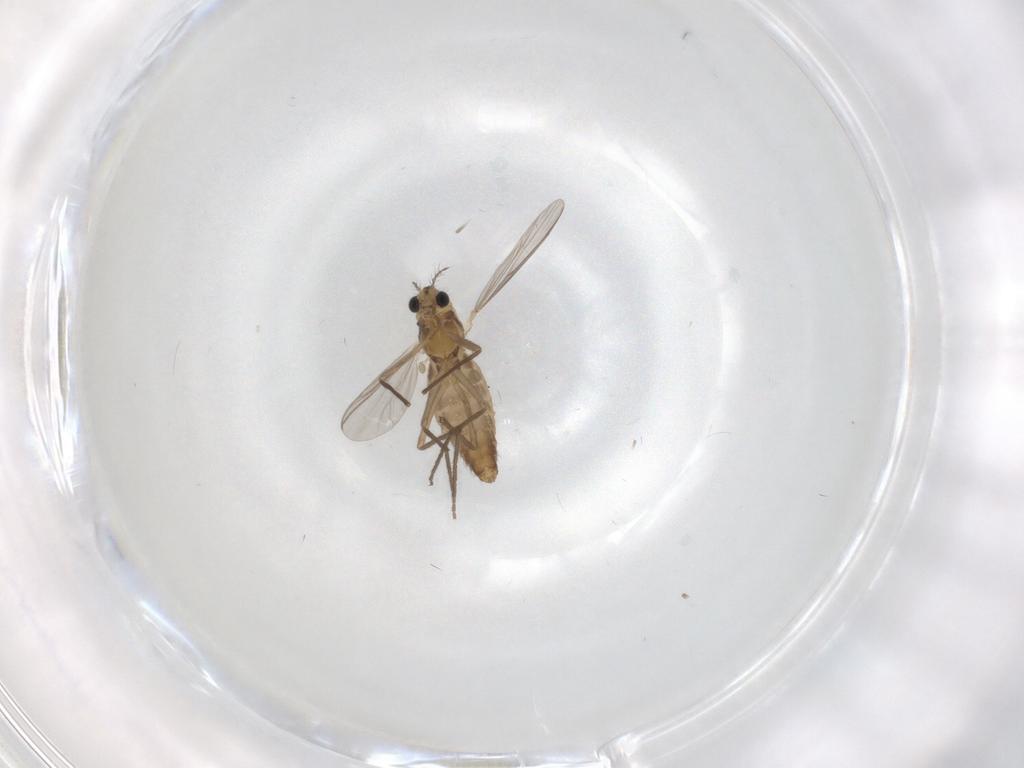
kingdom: Animalia
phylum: Arthropoda
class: Insecta
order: Diptera
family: Chironomidae
